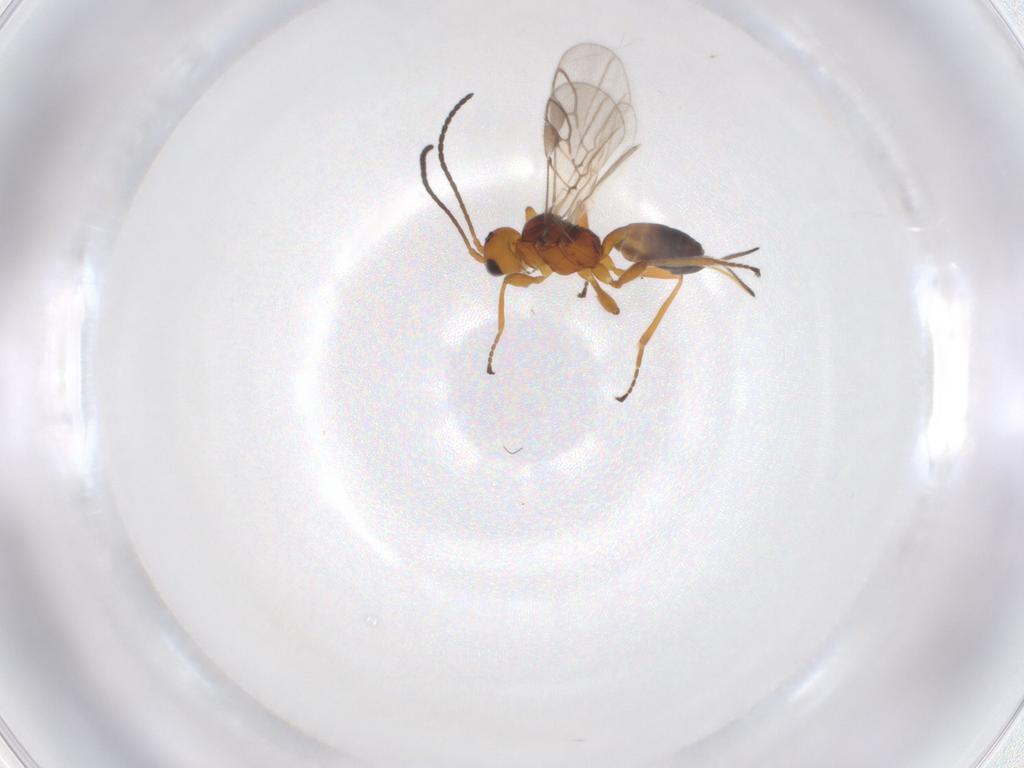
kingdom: Animalia
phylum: Arthropoda
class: Insecta
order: Hymenoptera
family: Braconidae
